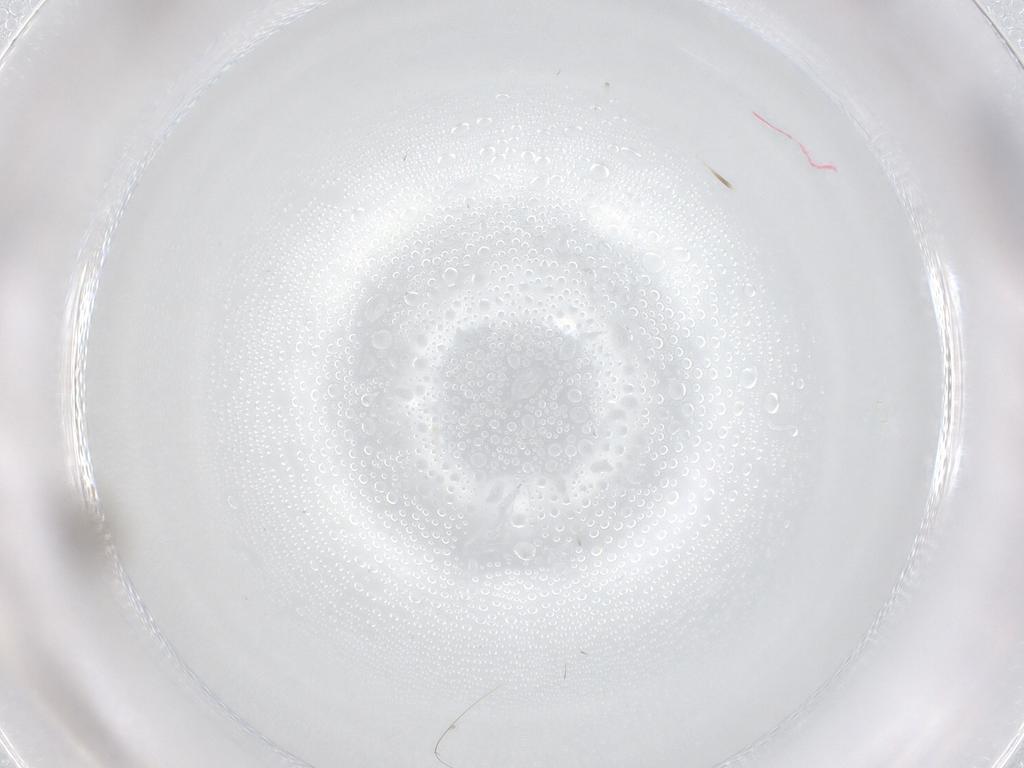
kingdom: Animalia
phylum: Arthropoda
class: Insecta
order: Diptera
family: Cecidomyiidae
